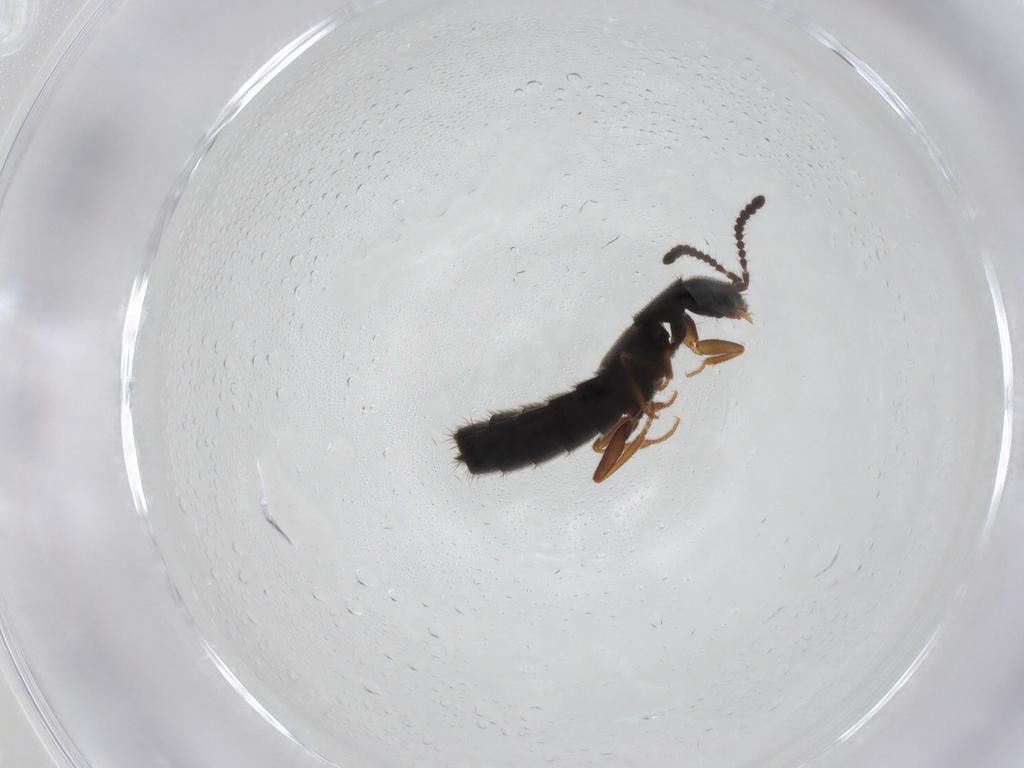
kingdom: Animalia
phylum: Arthropoda
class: Insecta
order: Coleoptera
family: Staphylinidae
